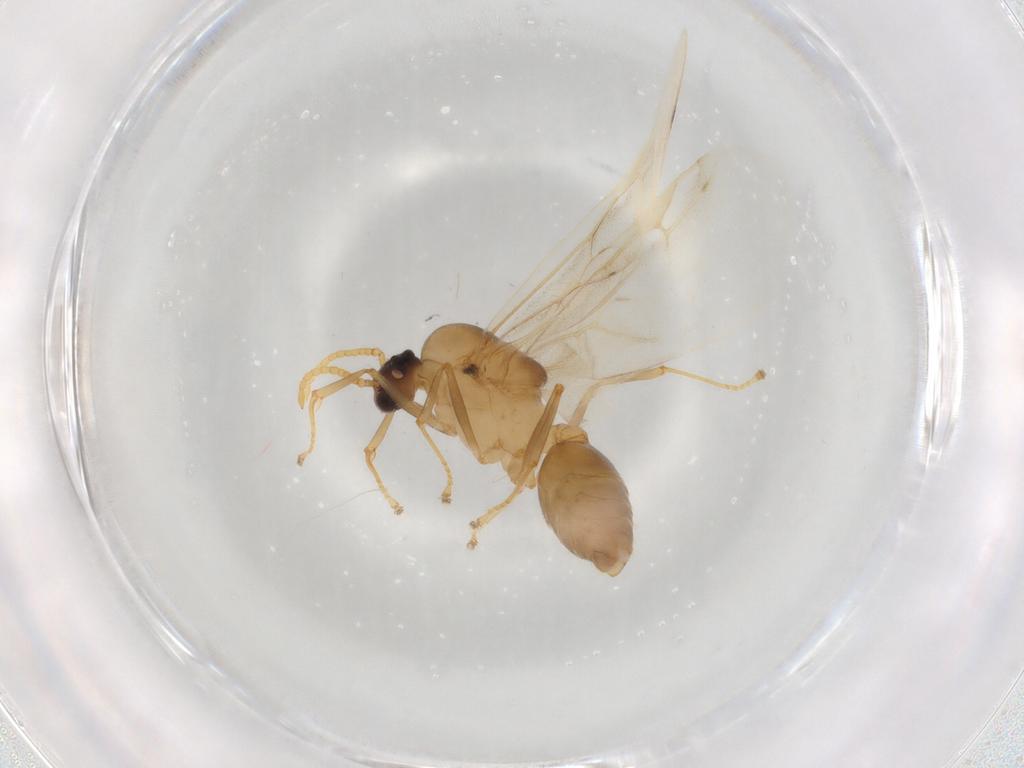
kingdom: Animalia
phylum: Arthropoda
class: Insecta
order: Hymenoptera
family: Formicidae
